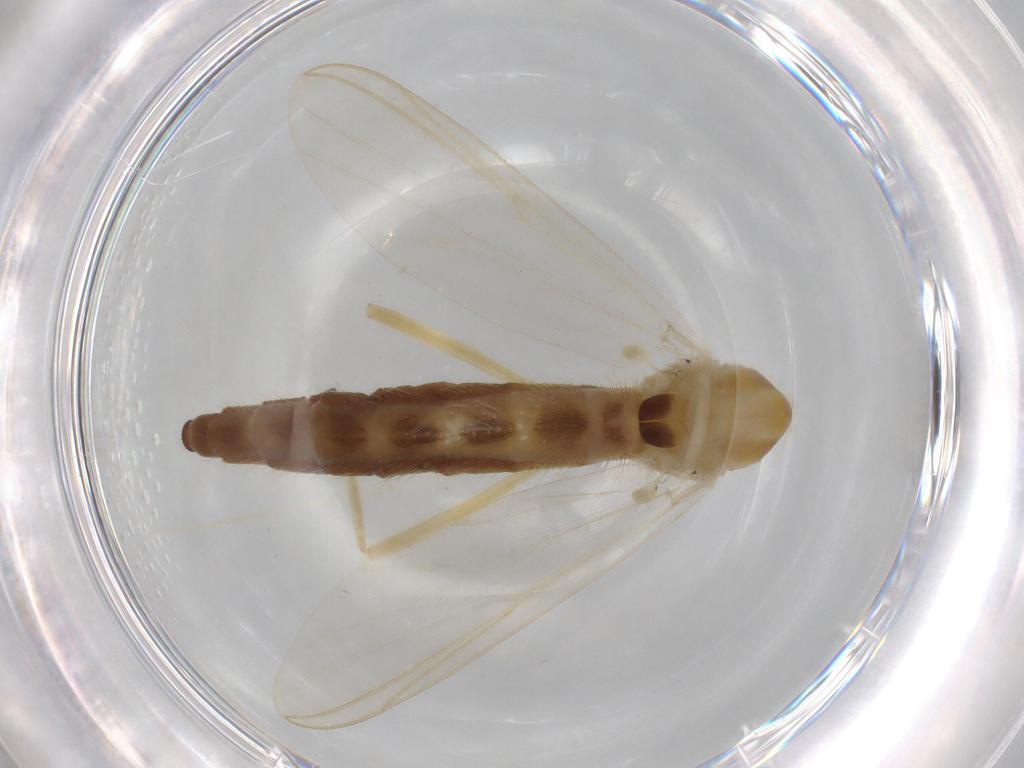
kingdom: Animalia
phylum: Arthropoda
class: Insecta
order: Diptera
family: Chironomidae
